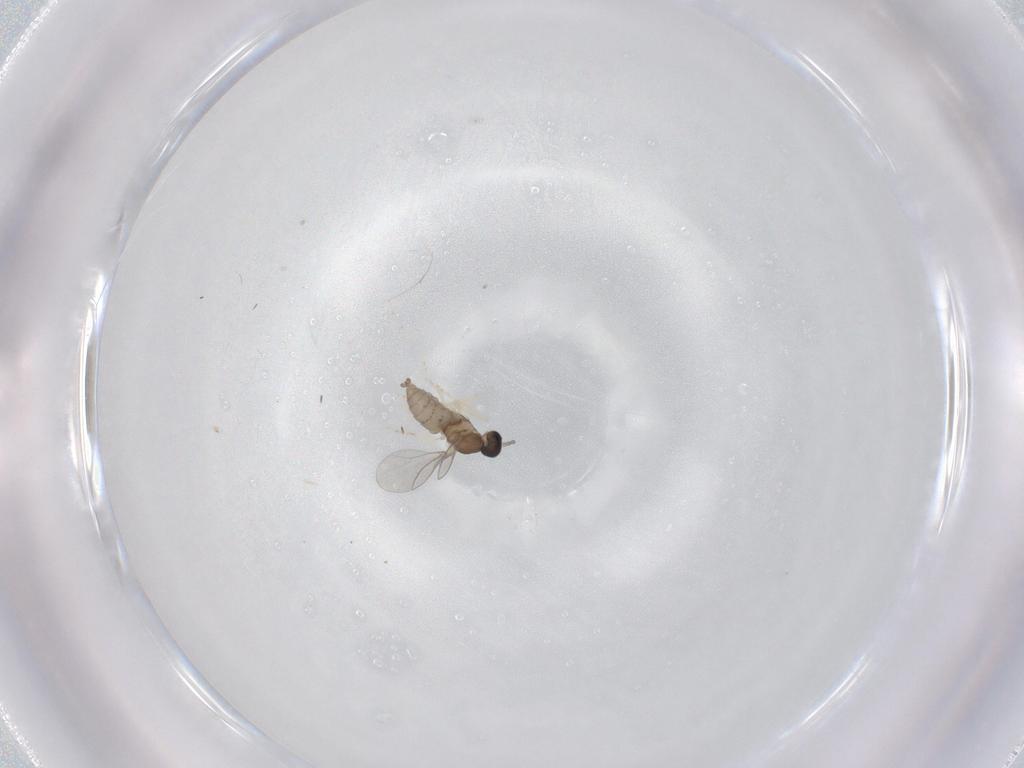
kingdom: Animalia
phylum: Arthropoda
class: Insecta
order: Diptera
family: Cecidomyiidae
